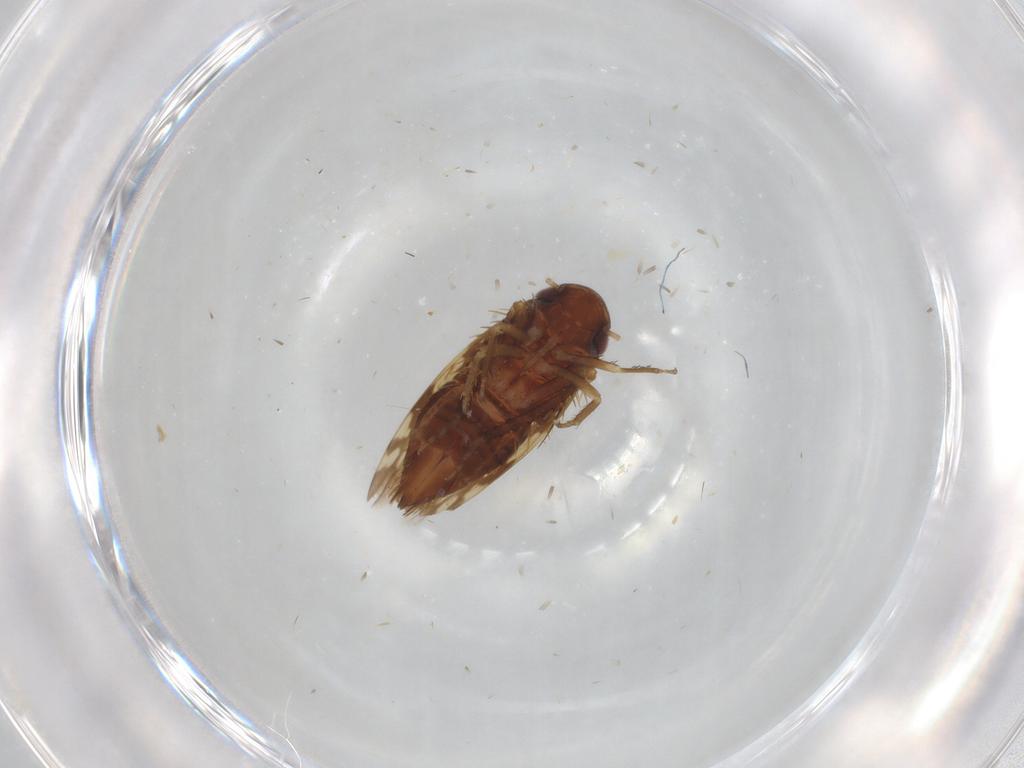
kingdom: Animalia
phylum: Arthropoda
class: Insecta
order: Hemiptera
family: Cicadellidae
